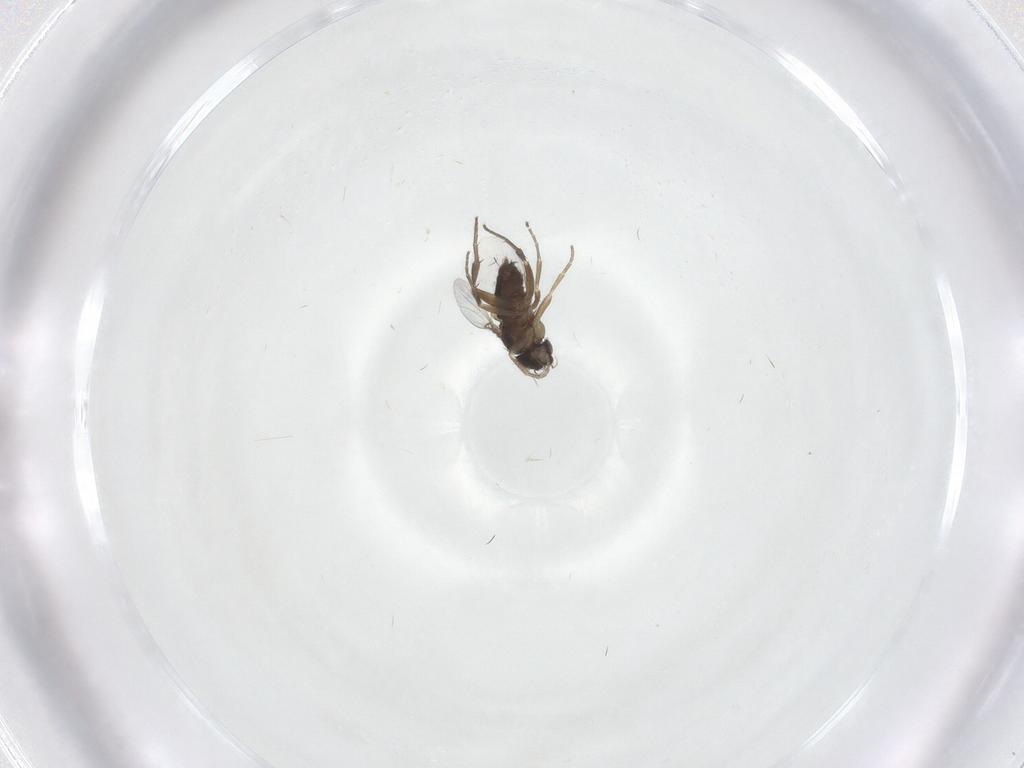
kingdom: Animalia
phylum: Arthropoda
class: Insecta
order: Diptera
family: Phoridae
